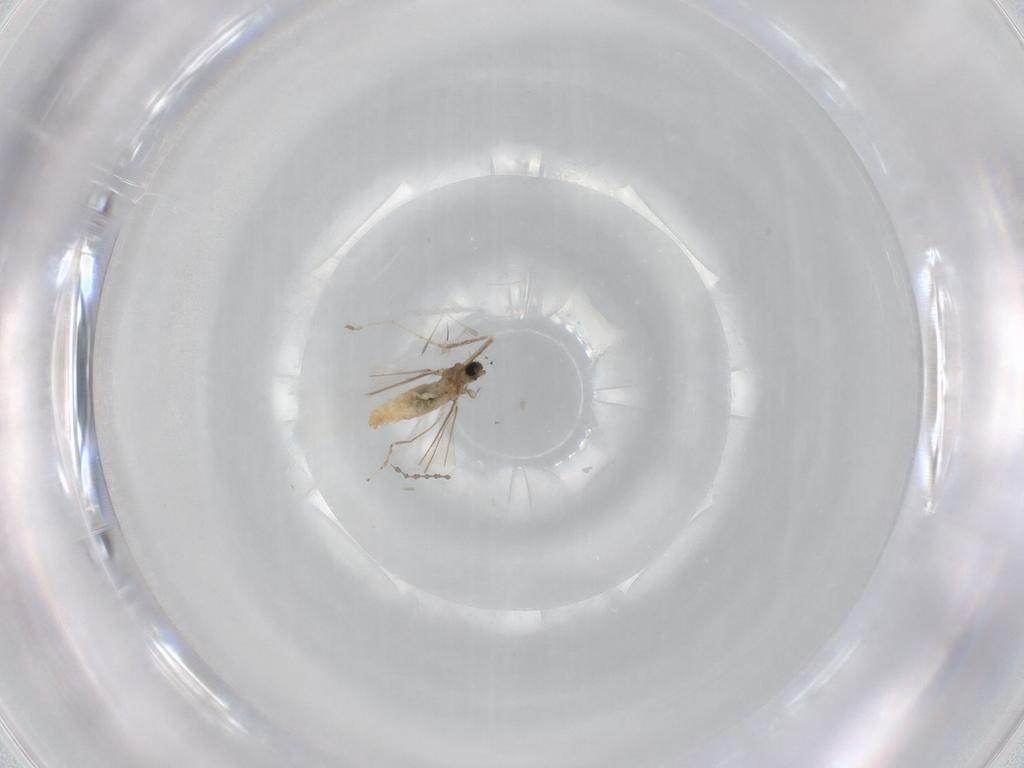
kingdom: Animalia
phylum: Arthropoda
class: Insecta
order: Diptera
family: Cecidomyiidae
